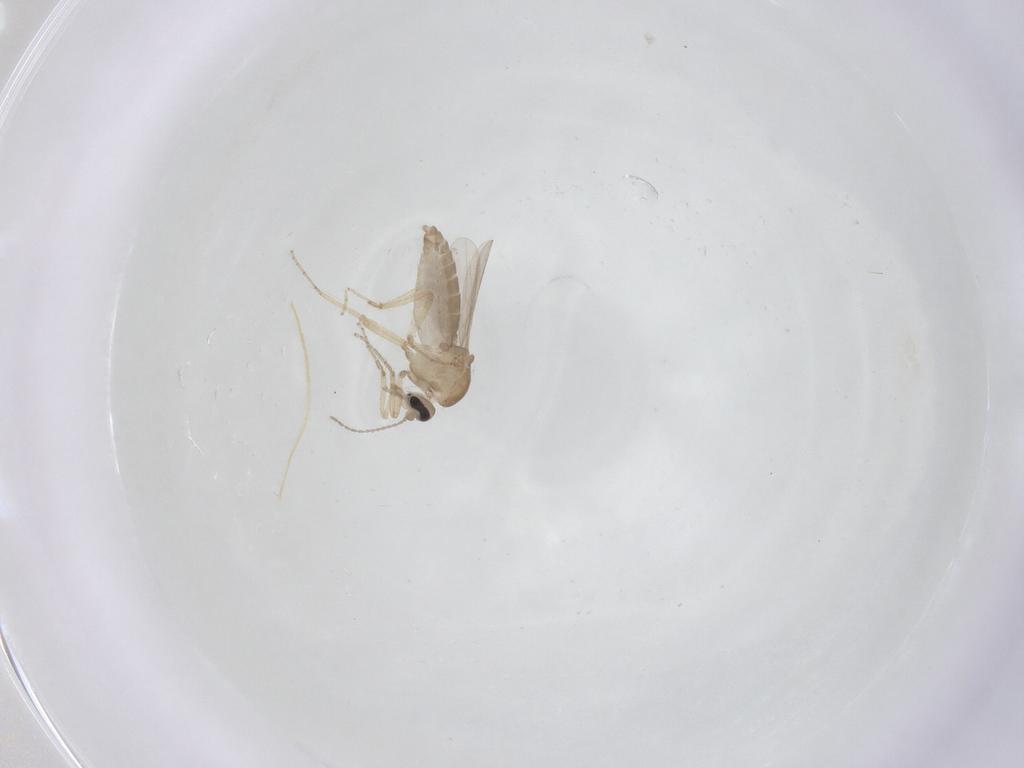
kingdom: Animalia
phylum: Arthropoda
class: Insecta
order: Diptera
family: Ceratopogonidae
